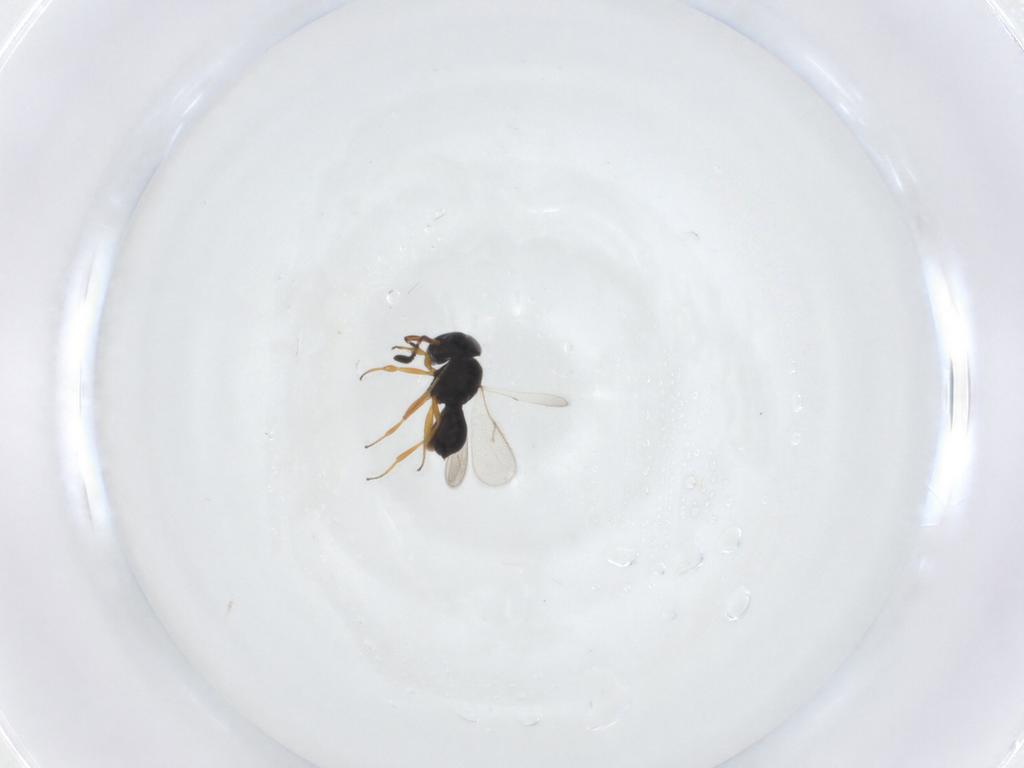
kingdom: Animalia
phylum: Arthropoda
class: Insecta
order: Hymenoptera
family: Scelionidae
